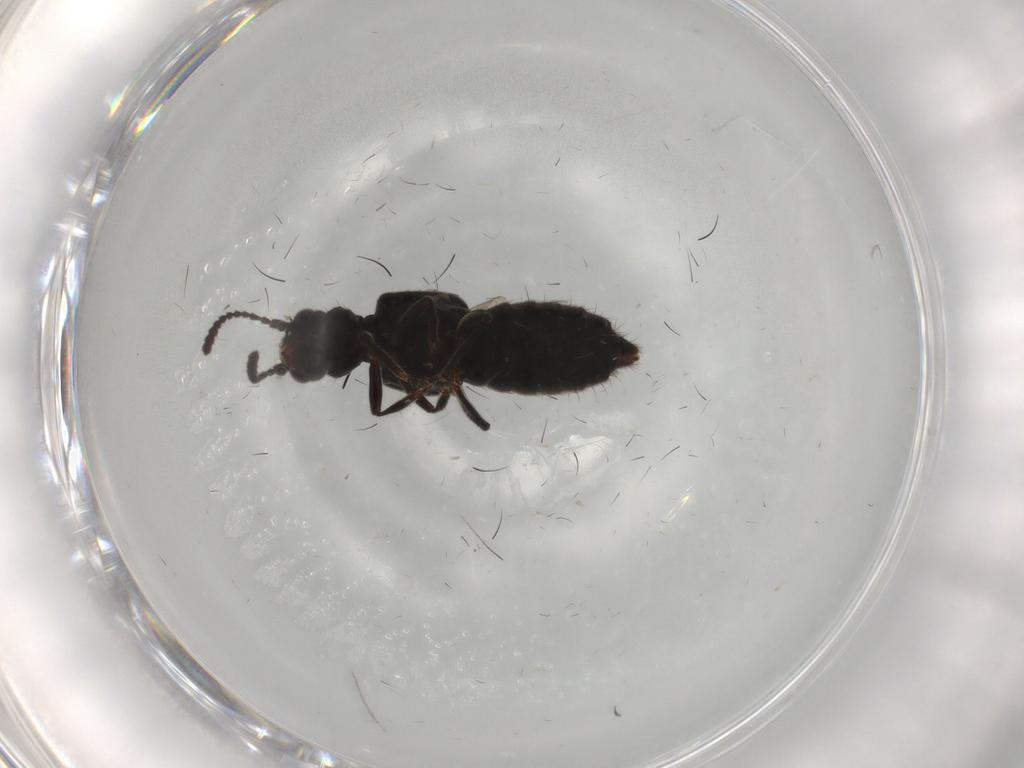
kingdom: Animalia
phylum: Arthropoda
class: Insecta
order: Coleoptera
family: Staphylinidae
